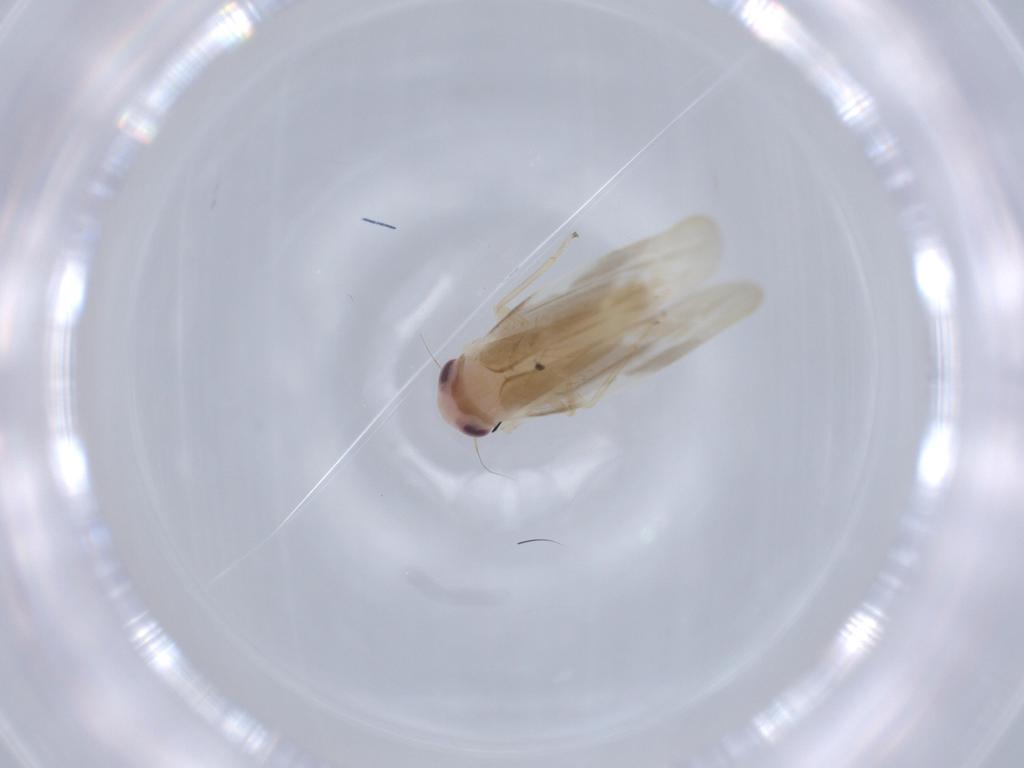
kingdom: Animalia
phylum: Arthropoda
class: Insecta
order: Hemiptera
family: Cicadellidae
